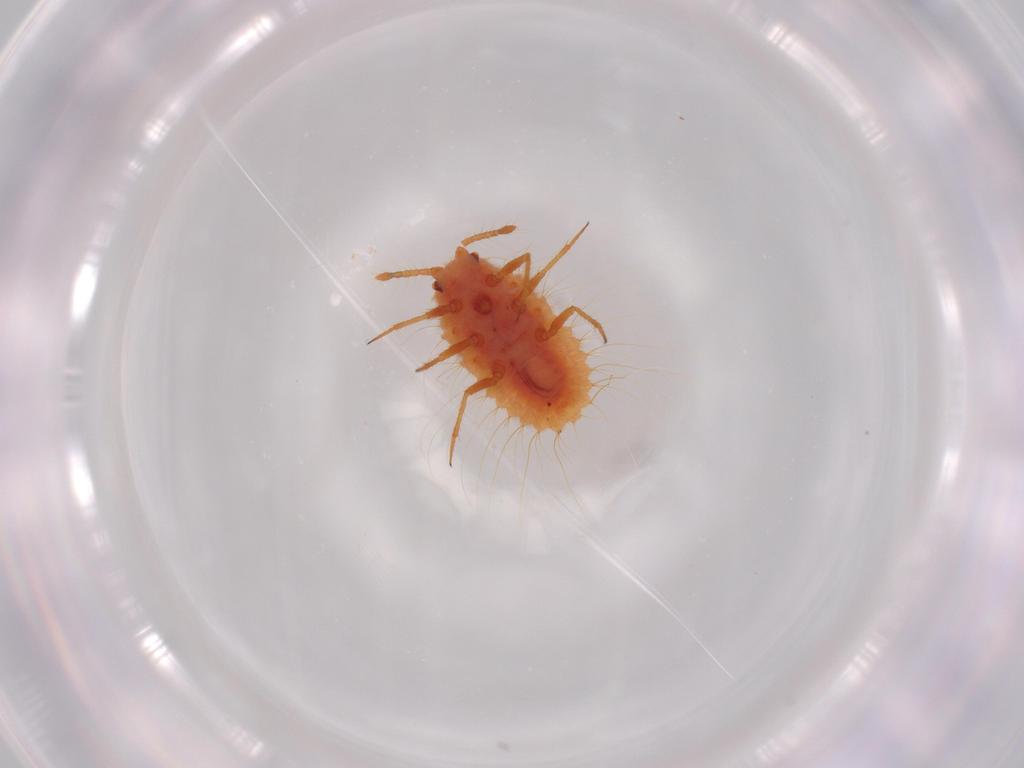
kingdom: Animalia
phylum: Arthropoda
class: Insecta
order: Hemiptera
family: Coccoidea_incertae_sedis
